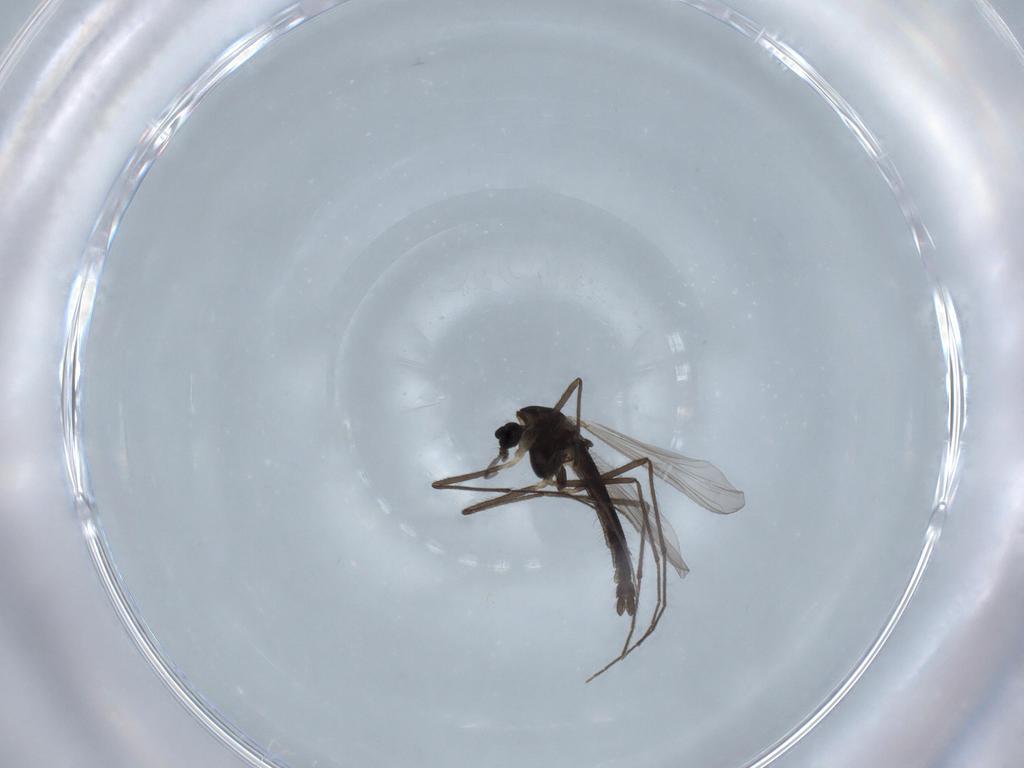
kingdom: Animalia
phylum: Arthropoda
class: Insecta
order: Diptera
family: Chironomidae
